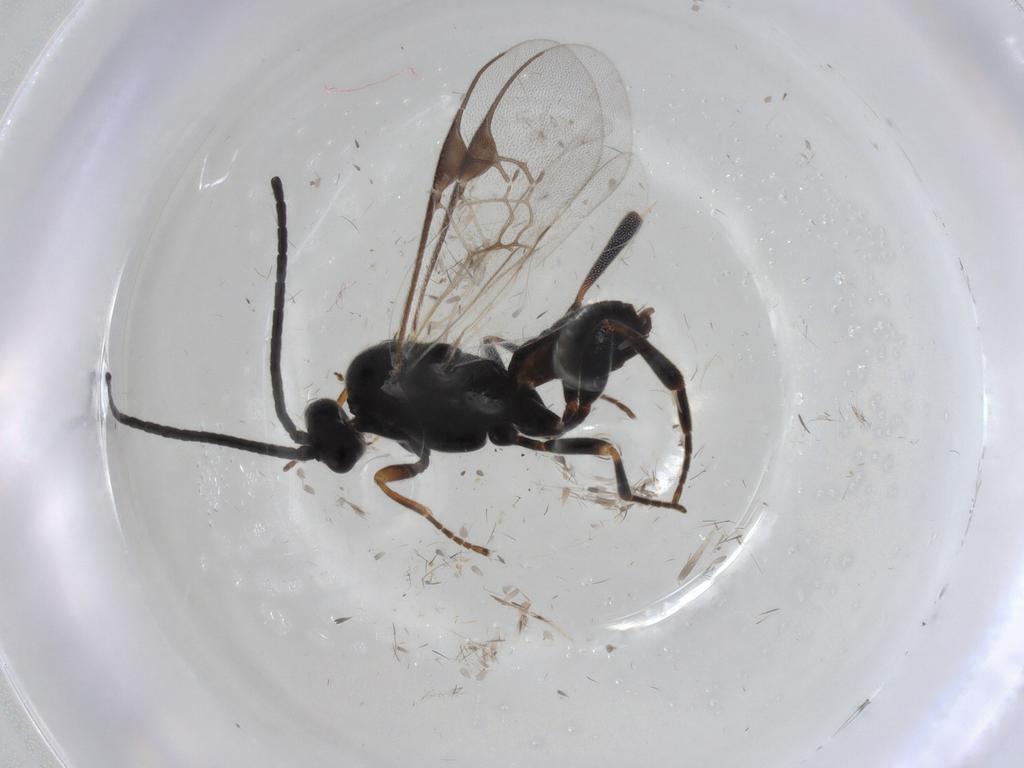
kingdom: Animalia
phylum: Arthropoda
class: Insecta
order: Hymenoptera
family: Braconidae
